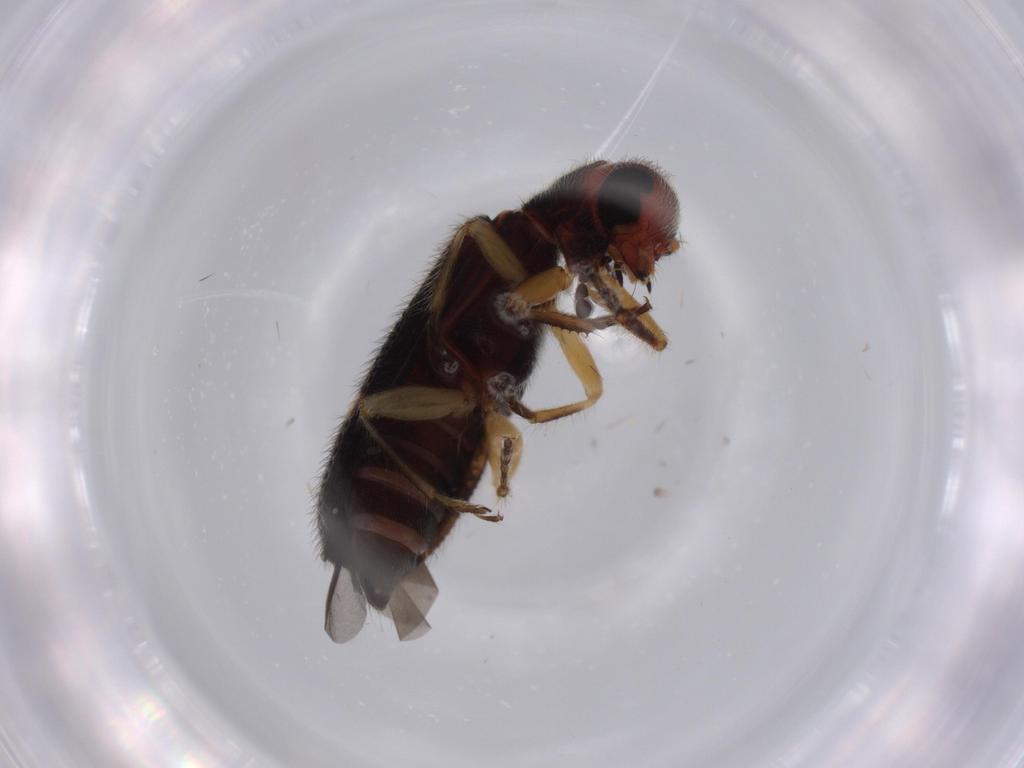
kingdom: Animalia
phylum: Arthropoda
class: Insecta
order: Coleoptera
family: Cleridae
